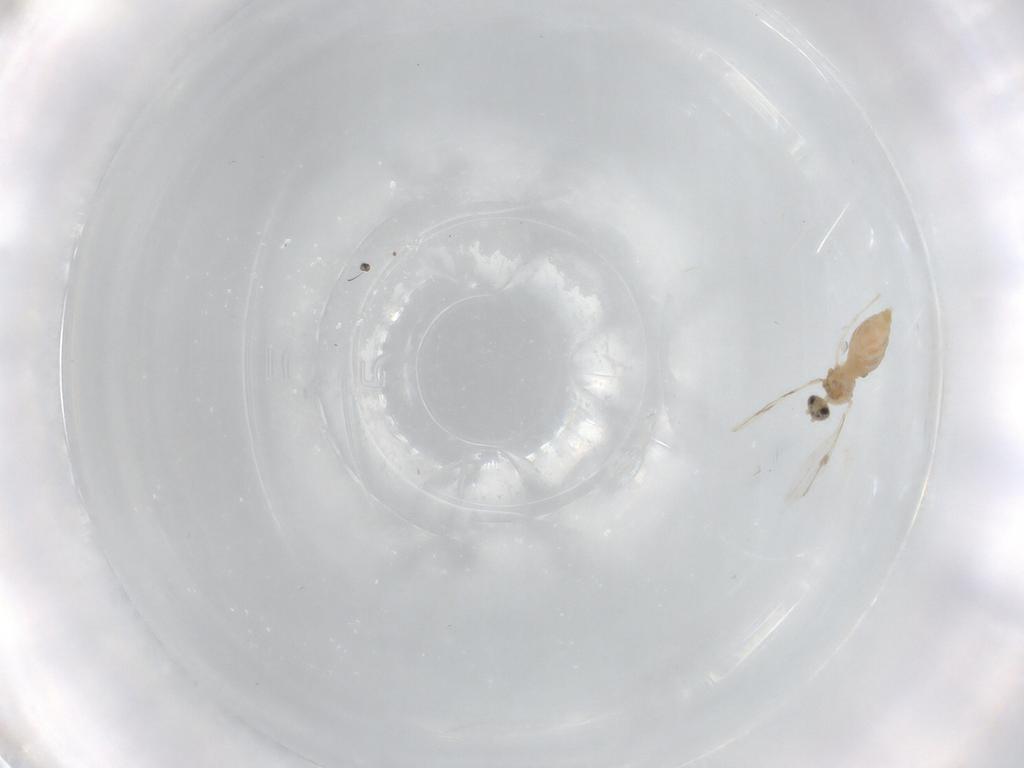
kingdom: Animalia
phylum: Arthropoda
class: Insecta
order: Diptera
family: Cecidomyiidae
